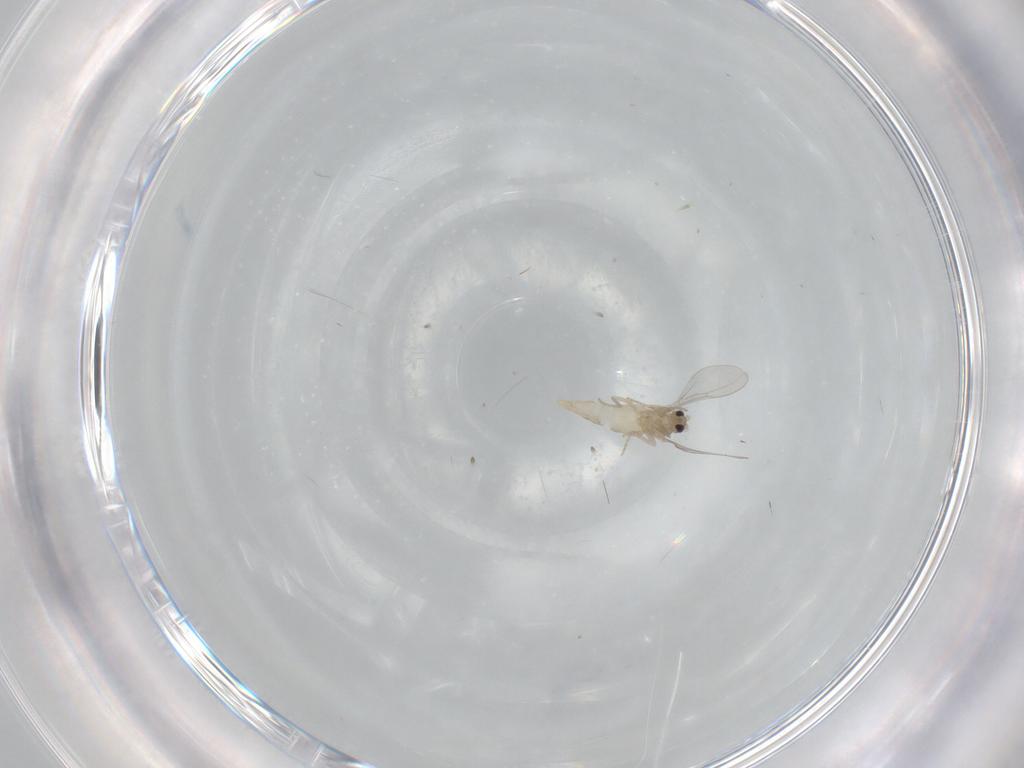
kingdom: Animalia
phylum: Arthropoda
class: Insecta
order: Diptera
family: Cecidomyiidae
